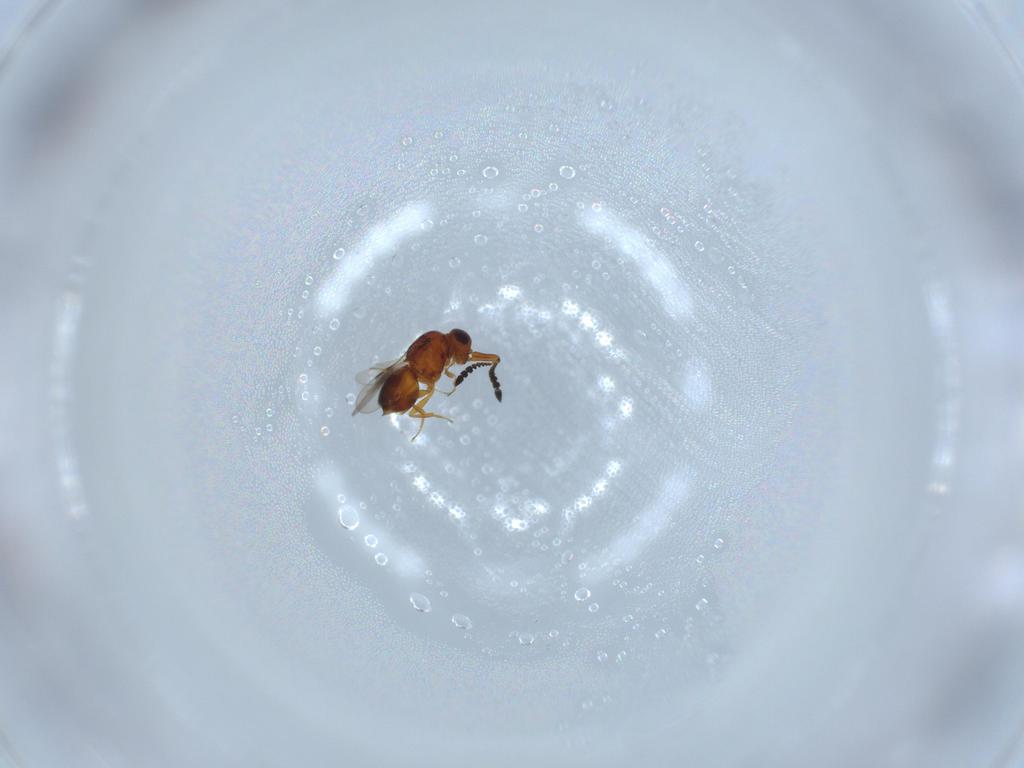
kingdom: Animalia
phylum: Arthropoda
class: Insecta
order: Hymenoptera
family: Ceraphronidae
